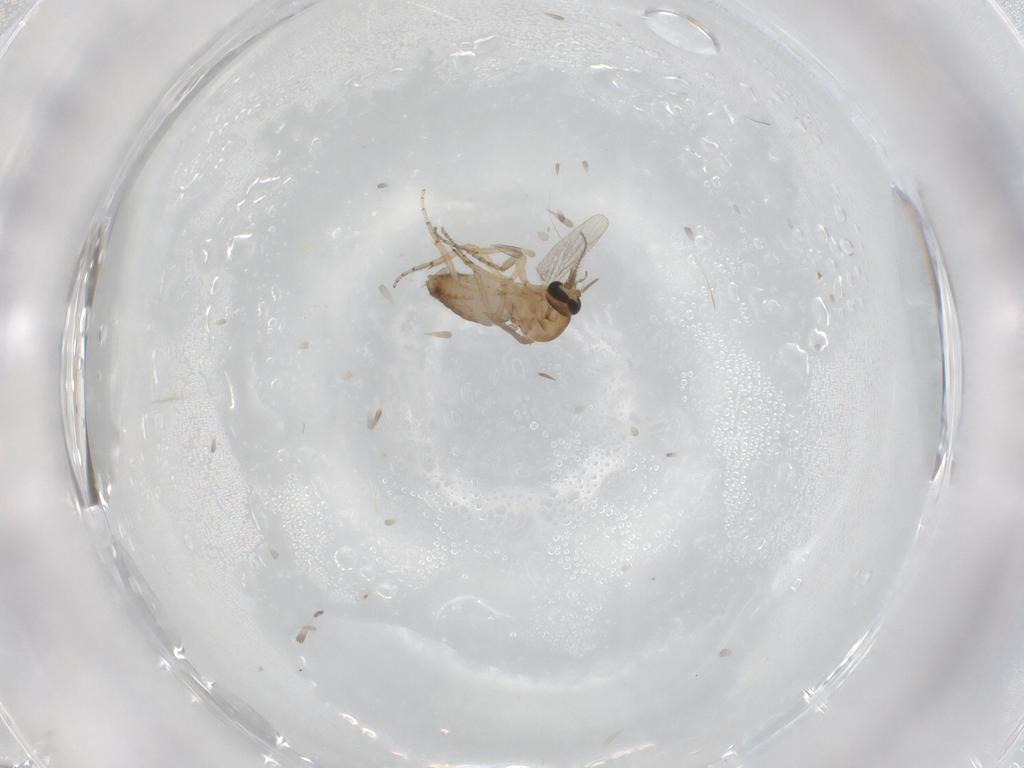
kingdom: Animalia
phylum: Arthropoda
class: Insecta
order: Diptera
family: Ceratopogonidae
